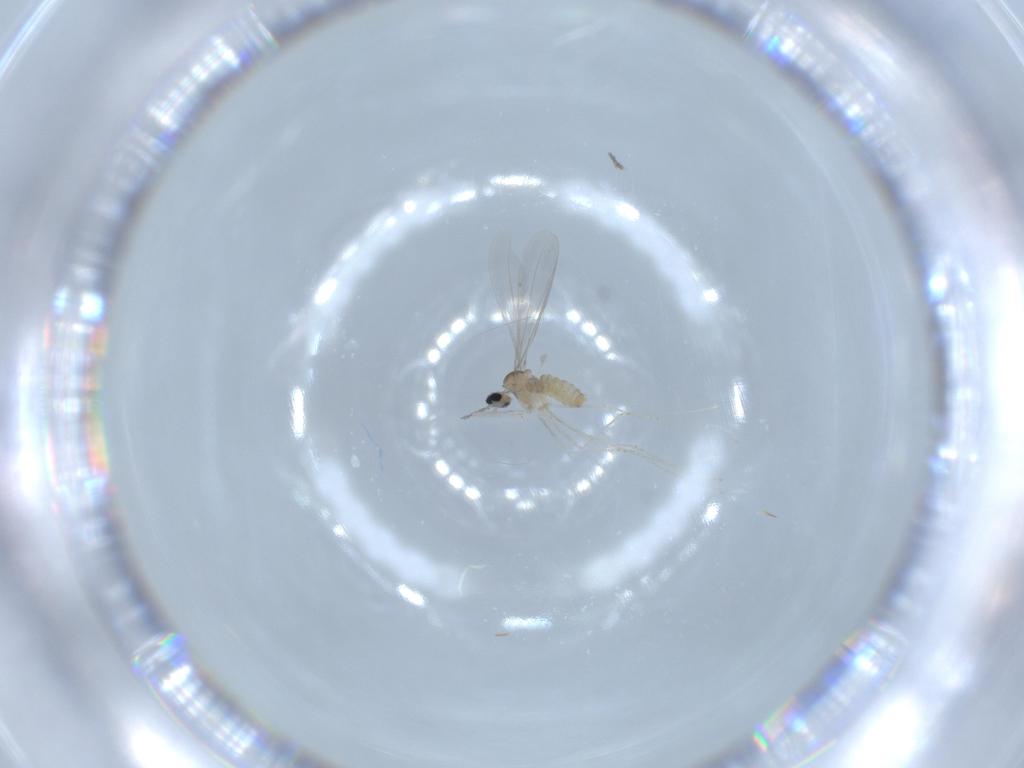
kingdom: Animalia
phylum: Arthropoda
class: Insecta
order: Diptera
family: Cecidomyiidae
